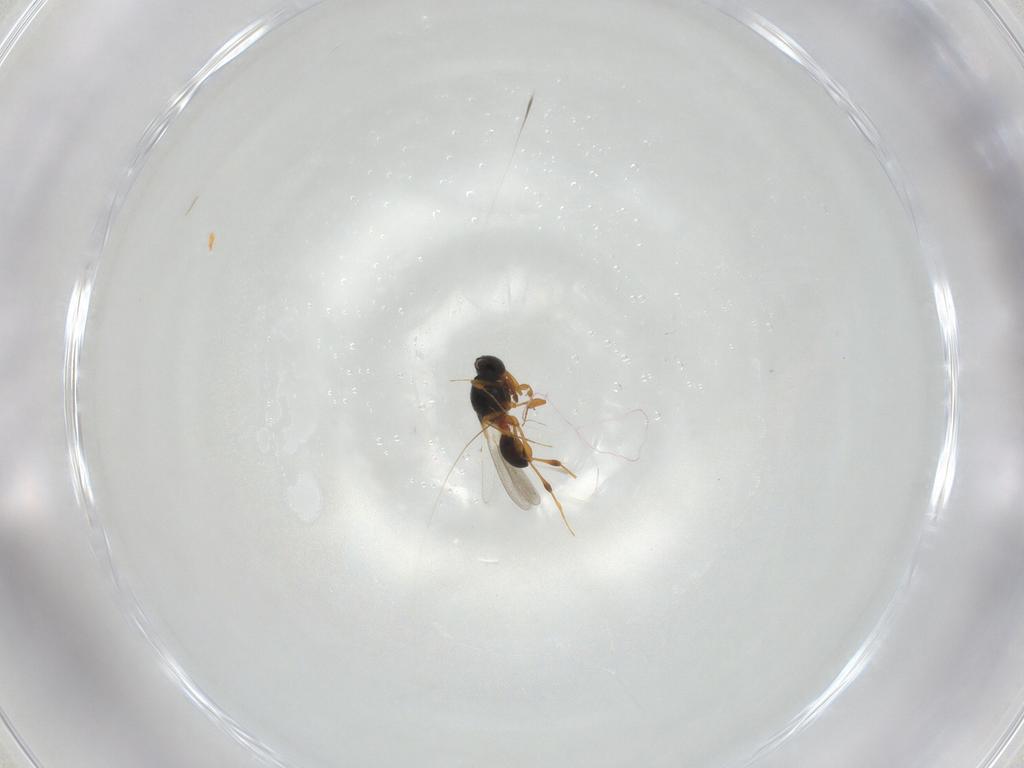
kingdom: Animalia
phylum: Arthropoda
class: Insecta
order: Hymenoptera
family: Platygastridae
